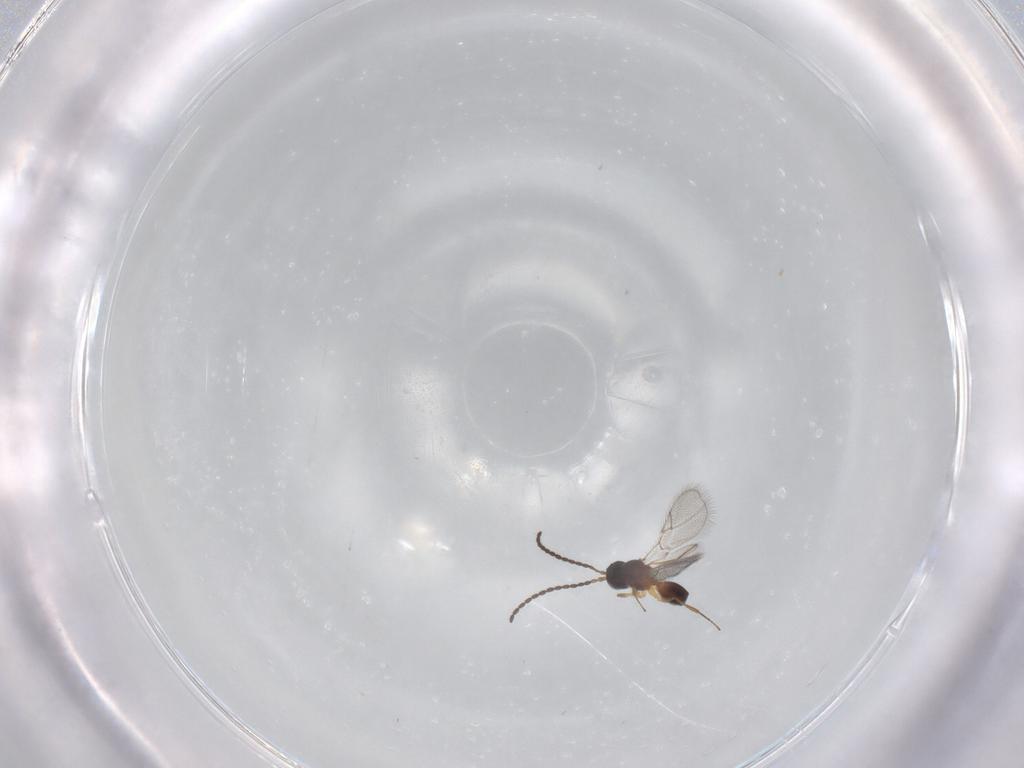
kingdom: Animalia
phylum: Arthropoda
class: Insecta
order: Hymenoptera
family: Figitidae
